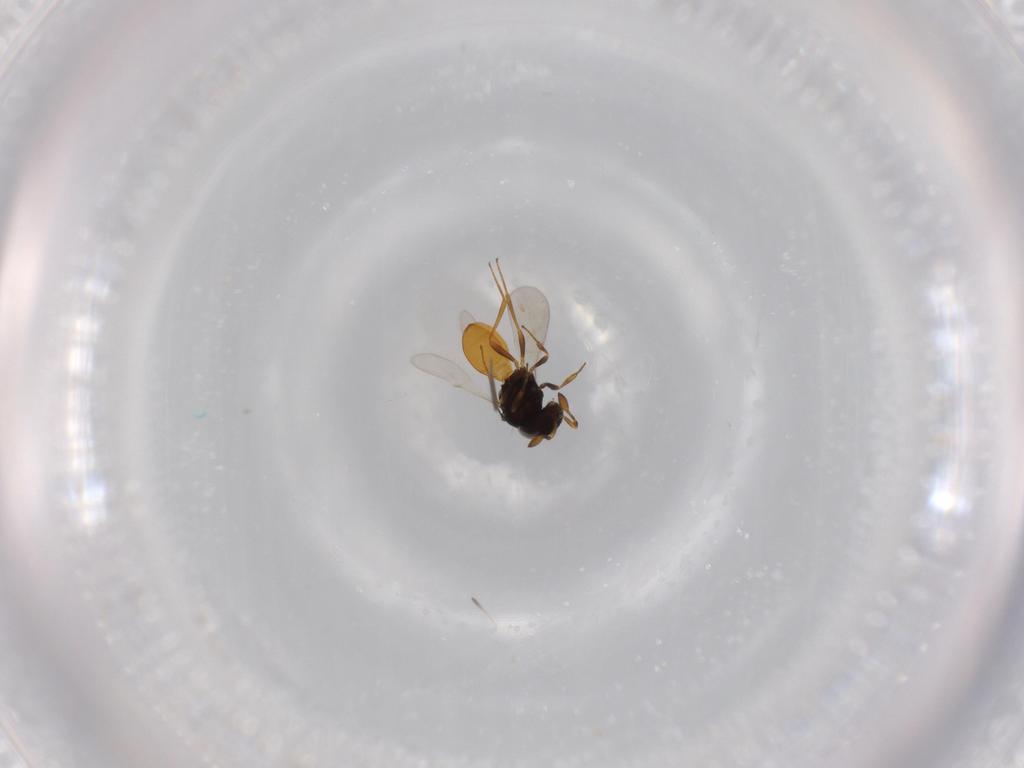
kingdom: Animalia
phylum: Arthropoda
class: Insecta
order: Hymenoptera
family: Scelionidae
